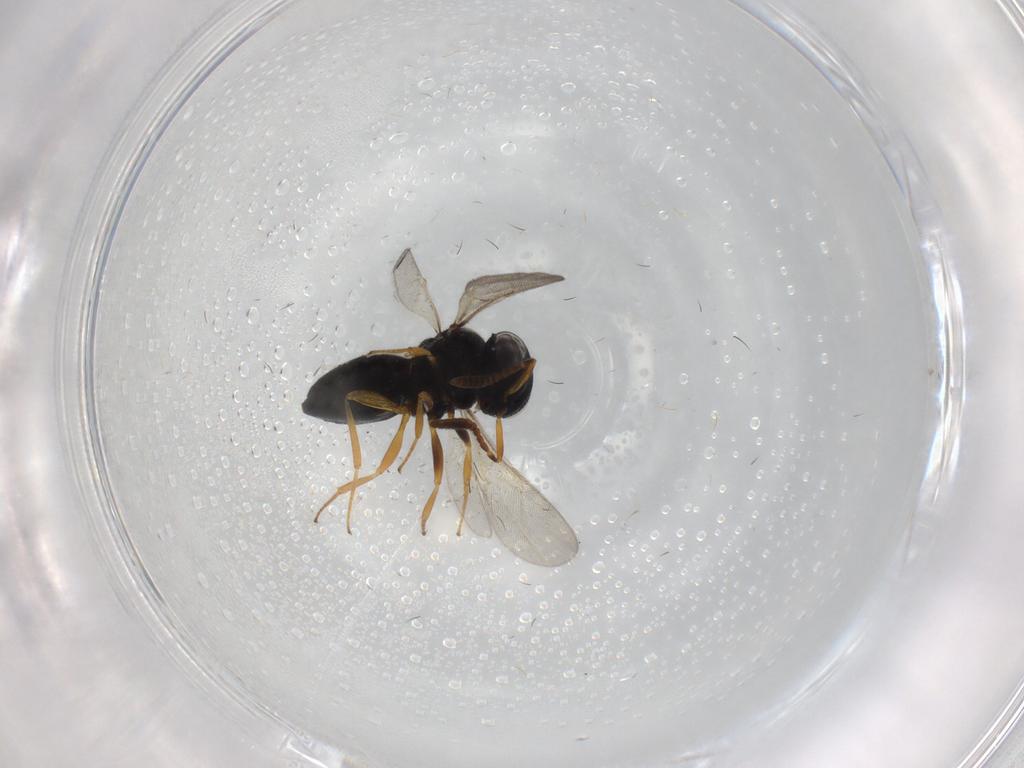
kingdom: Animalia
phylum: Arthropoda
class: Insecta
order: Hymenoptera
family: Scelionidae
